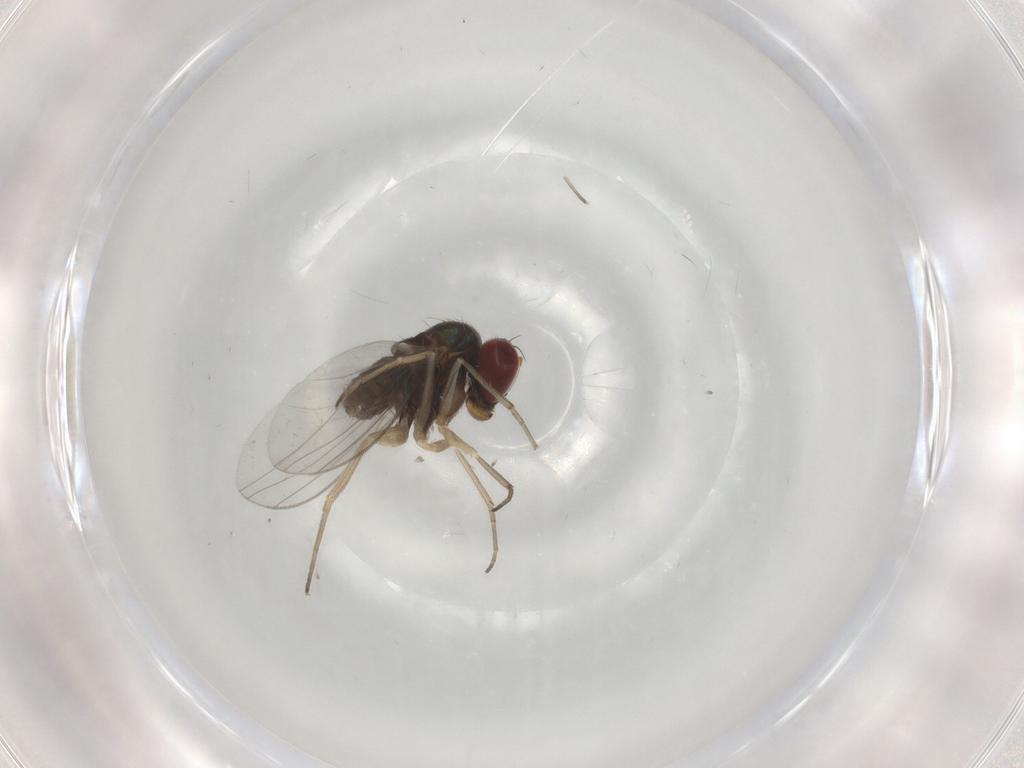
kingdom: Animalia
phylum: Arthropoda
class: Insecta
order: Diptera
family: Dolichopodidae
